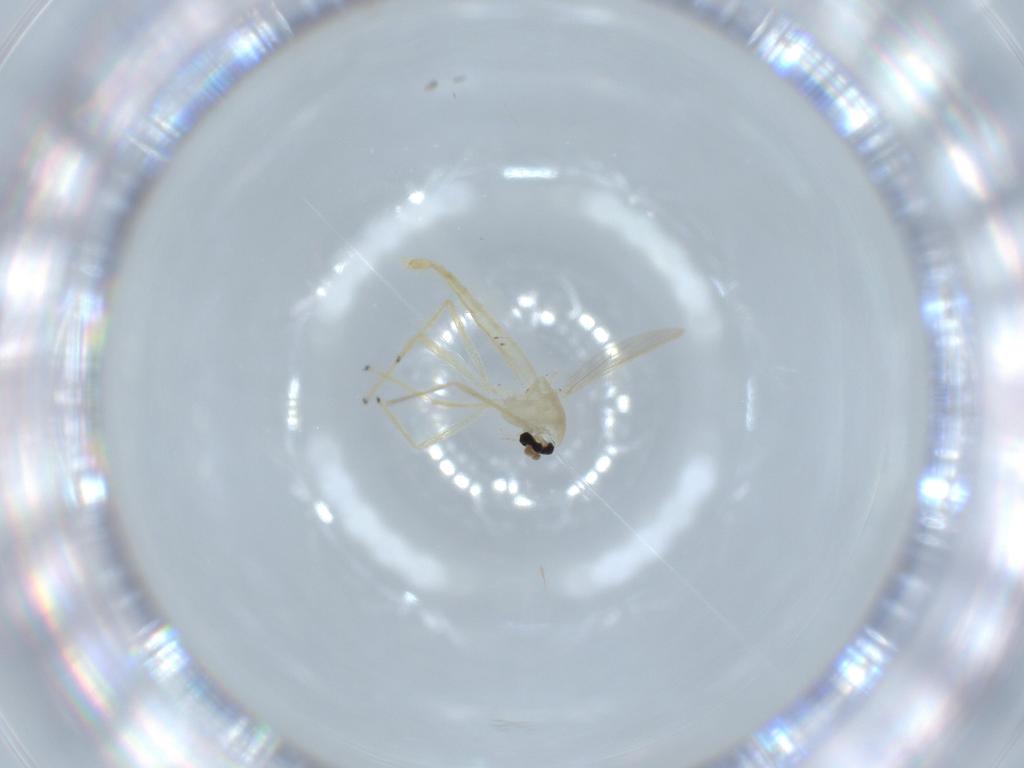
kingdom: Animalia
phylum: Arthropoda
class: Insecta
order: Diptera
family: Chironomidae
